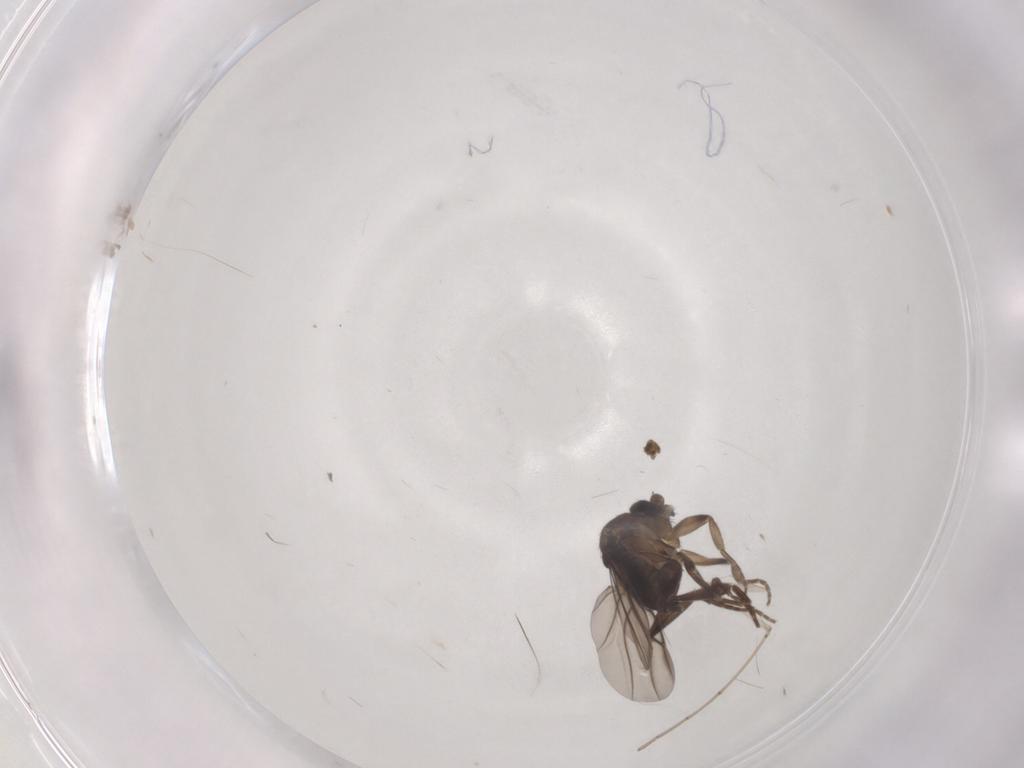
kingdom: Animalia
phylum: Arthropoda
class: Insecta
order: Diptera
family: Phoridae
